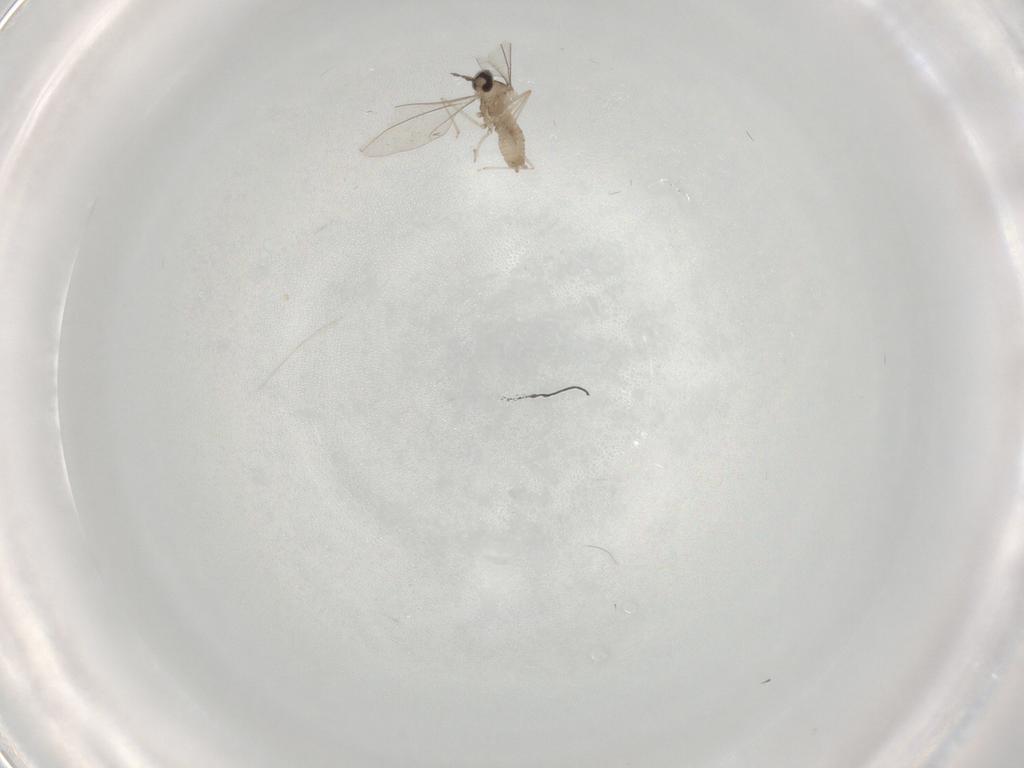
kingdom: Animalia
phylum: Arthropoda
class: Insecta
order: Diptera
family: Cecidomyiidae
